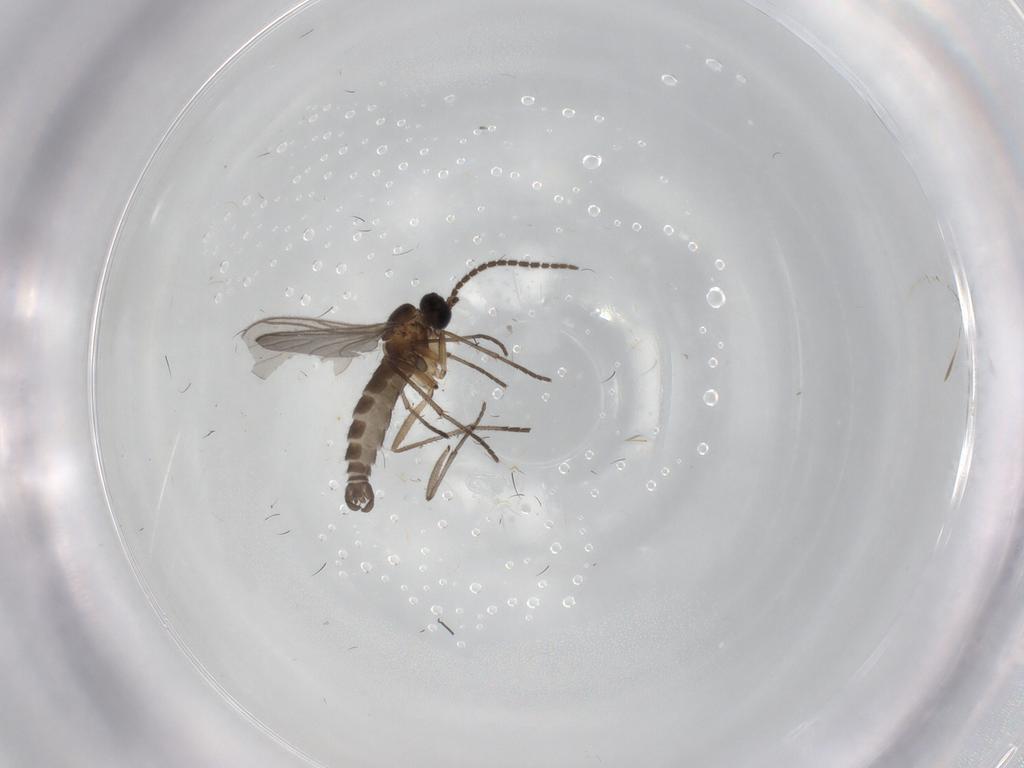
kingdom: Animalia
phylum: Arthropoda
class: Insecta
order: Diptera
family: Sciaridae
